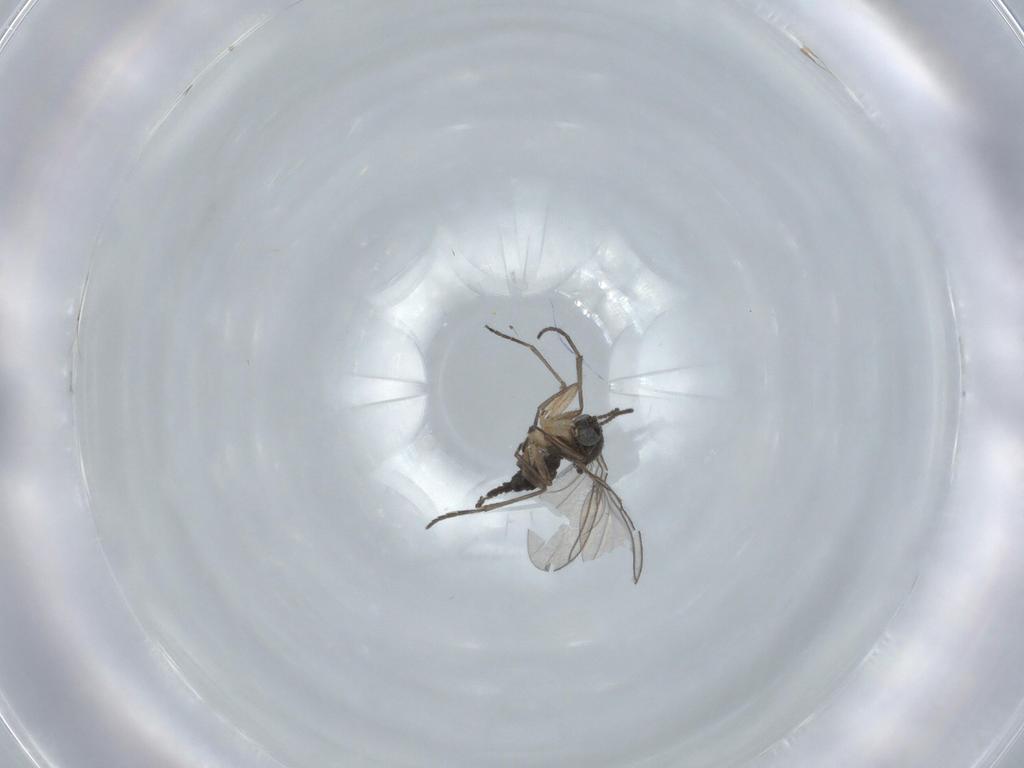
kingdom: Animalia
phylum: Arthropoda
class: Insecta
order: Diptera
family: Sciaridae
